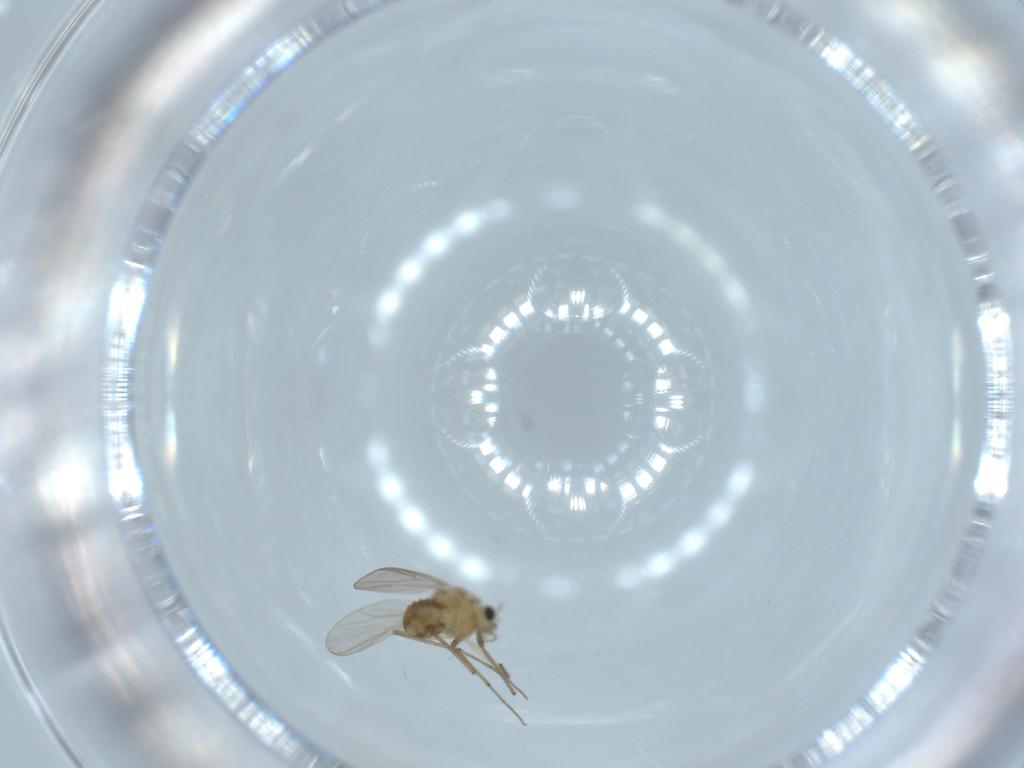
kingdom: Animalia
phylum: Arthropoda
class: Insecta
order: Diptera
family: Chironomidae
